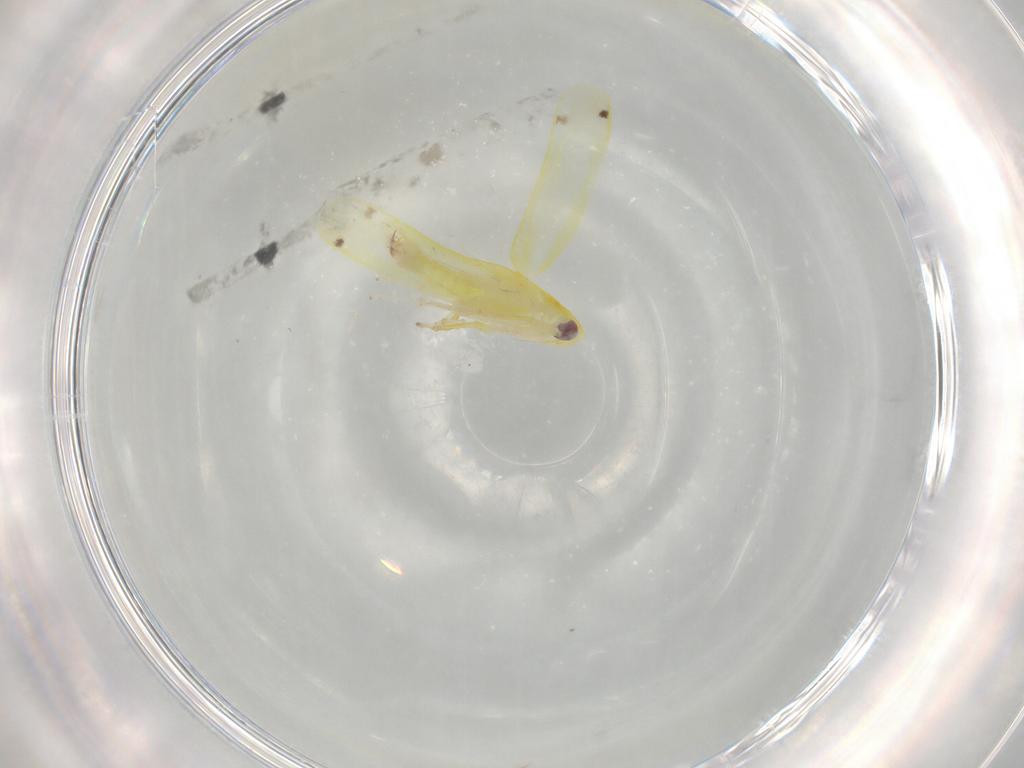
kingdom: Animalia
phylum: Arthropoda
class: Insecta
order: Hemiptera
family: Cicadellidae
